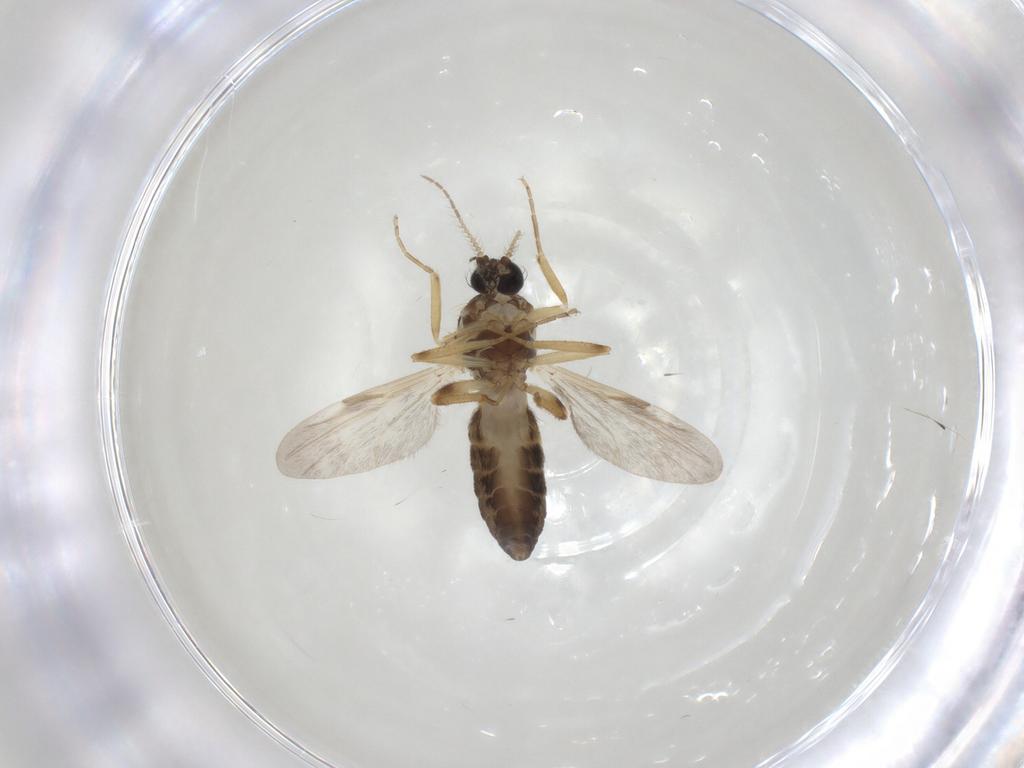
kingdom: Animalia
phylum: Arthropoda
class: Insecta
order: Diptera
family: Ceratopogonidae
